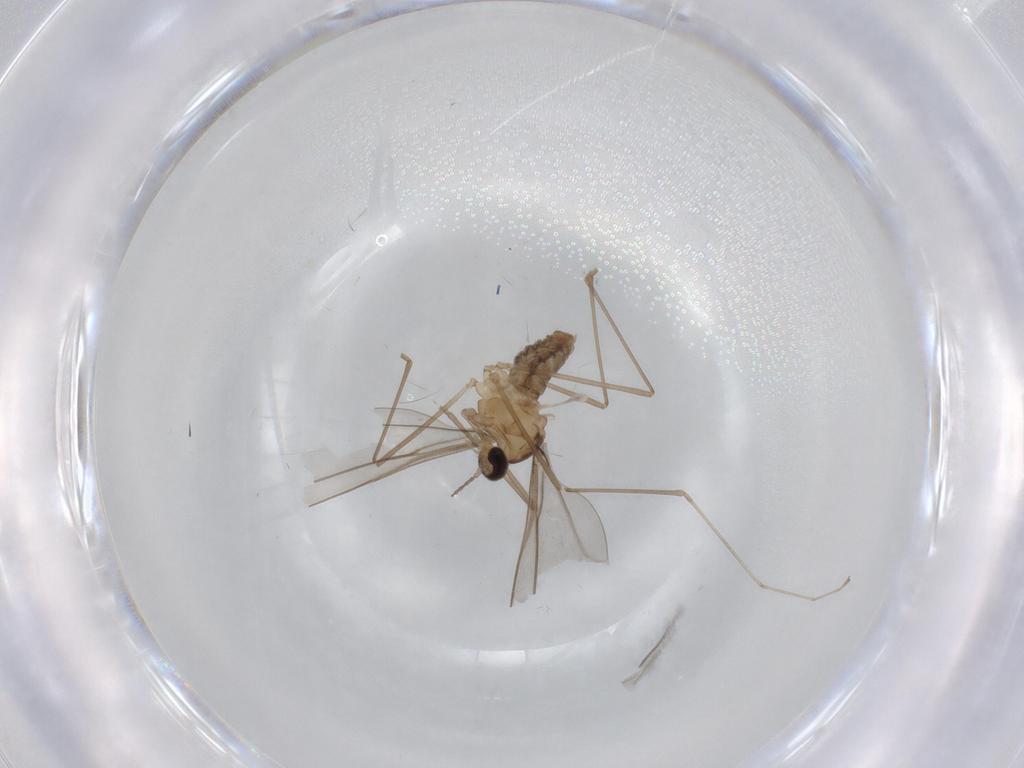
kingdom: Animalia
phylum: Arthropoda
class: Insecta
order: Diptera
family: Cecidomyiidae
